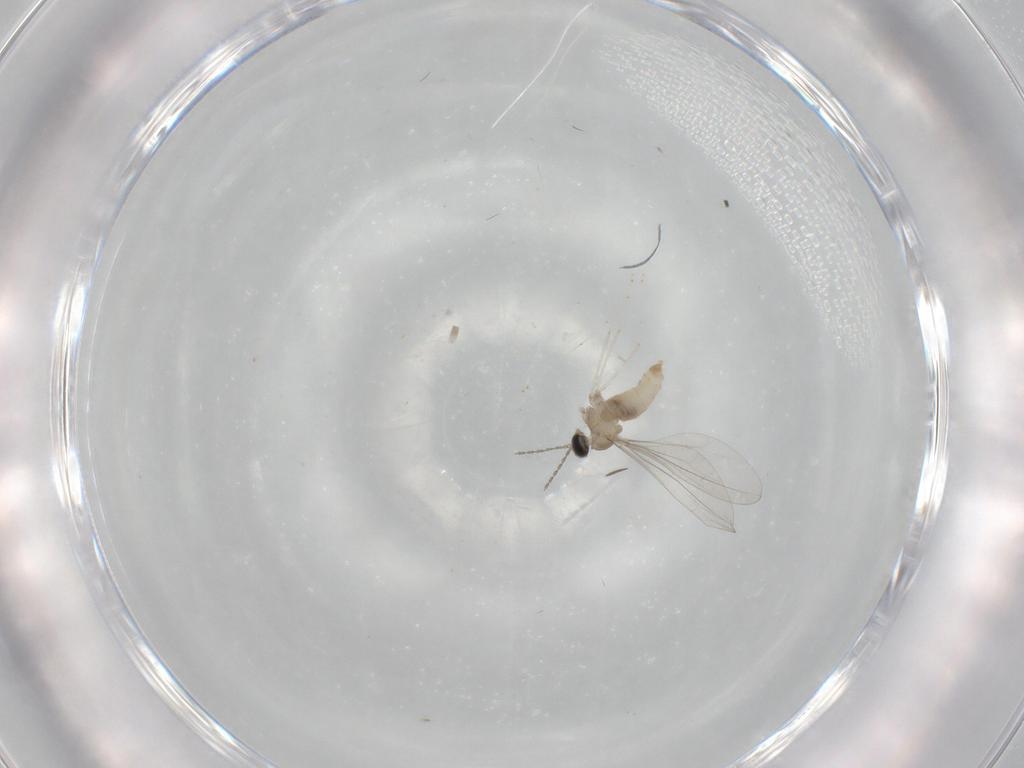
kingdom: Animalia
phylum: Arthropoda
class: Insecta
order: Diptera
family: Cecidomyiidae
